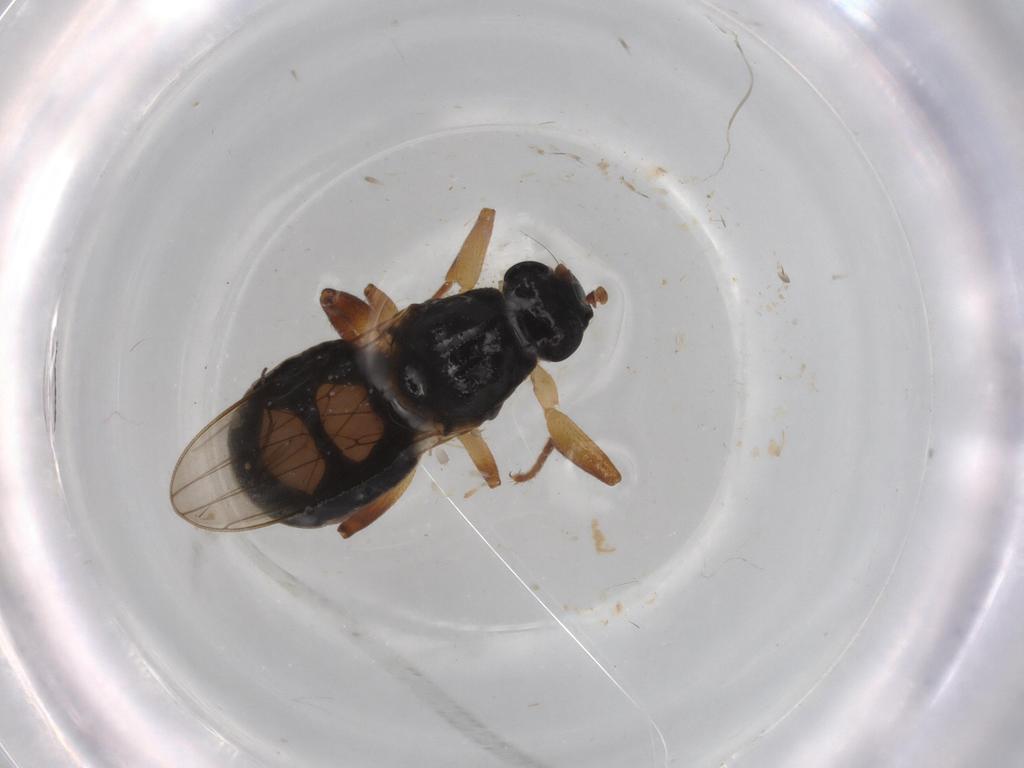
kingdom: Animalia
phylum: Arthropoda
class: Insecta
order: Diptera
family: Sphaeroceridae
